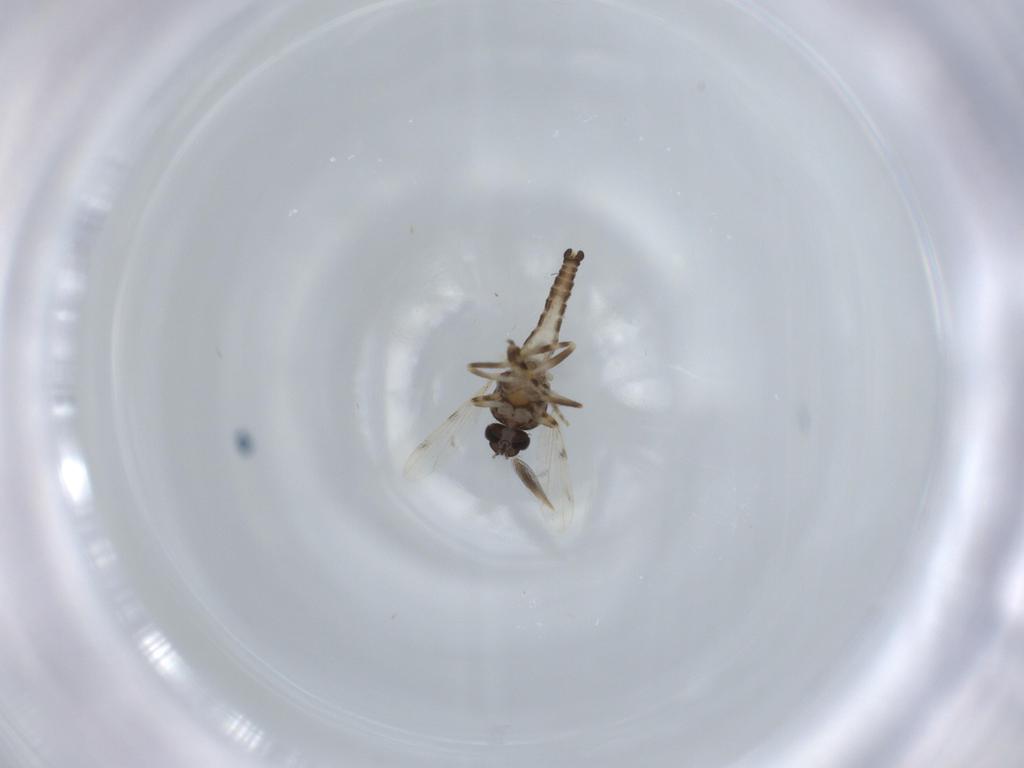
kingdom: Animalia
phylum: Arthropoda
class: Insecta
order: Diptera
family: Ceratopogonidae
